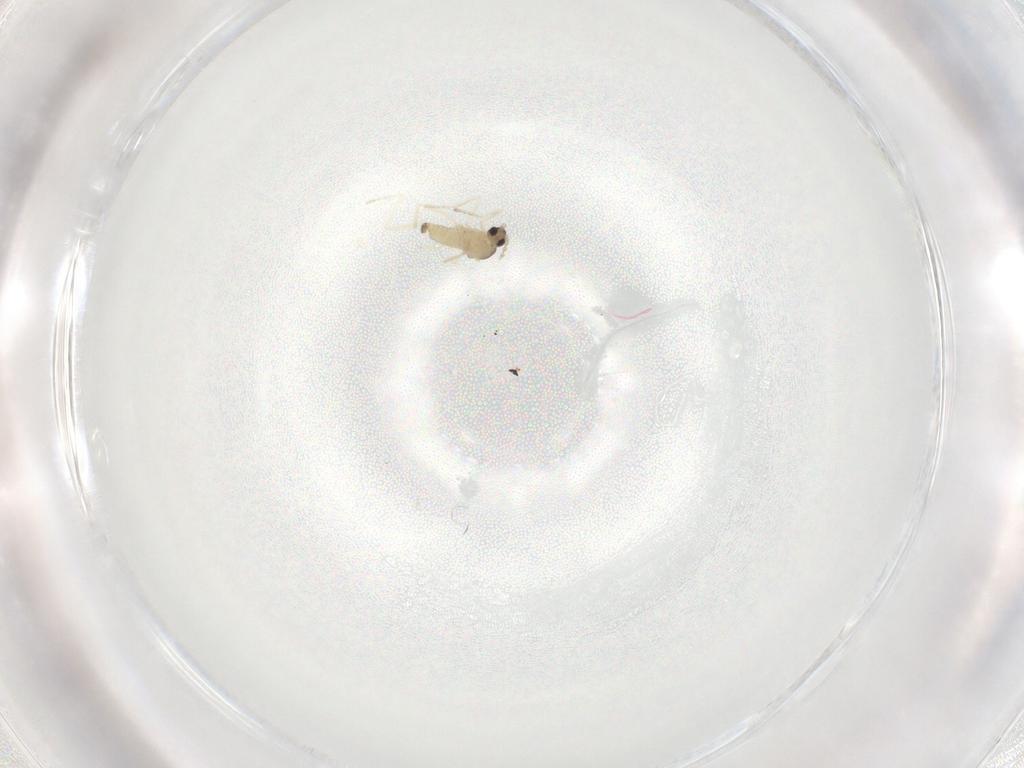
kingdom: Animalia
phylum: Arthropoda
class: Insecta
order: Diptera
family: Cecidomyiidae
